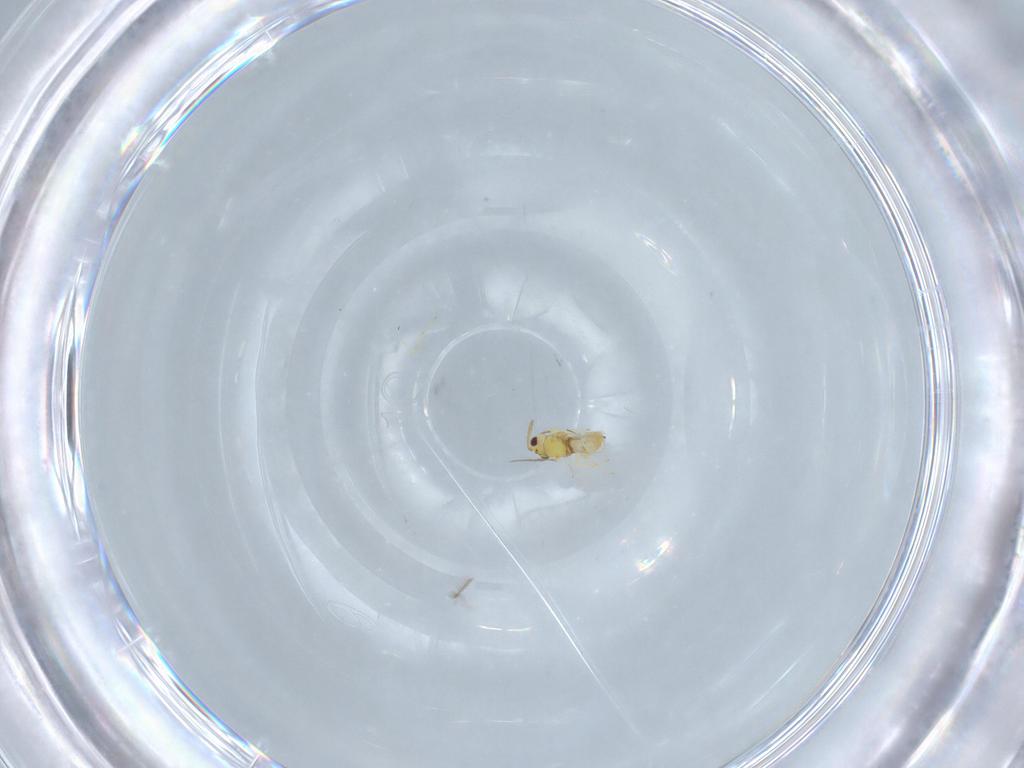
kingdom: Animalia
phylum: Arthropoda
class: Insecta
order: Hymenoptera
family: Aphelinidae
